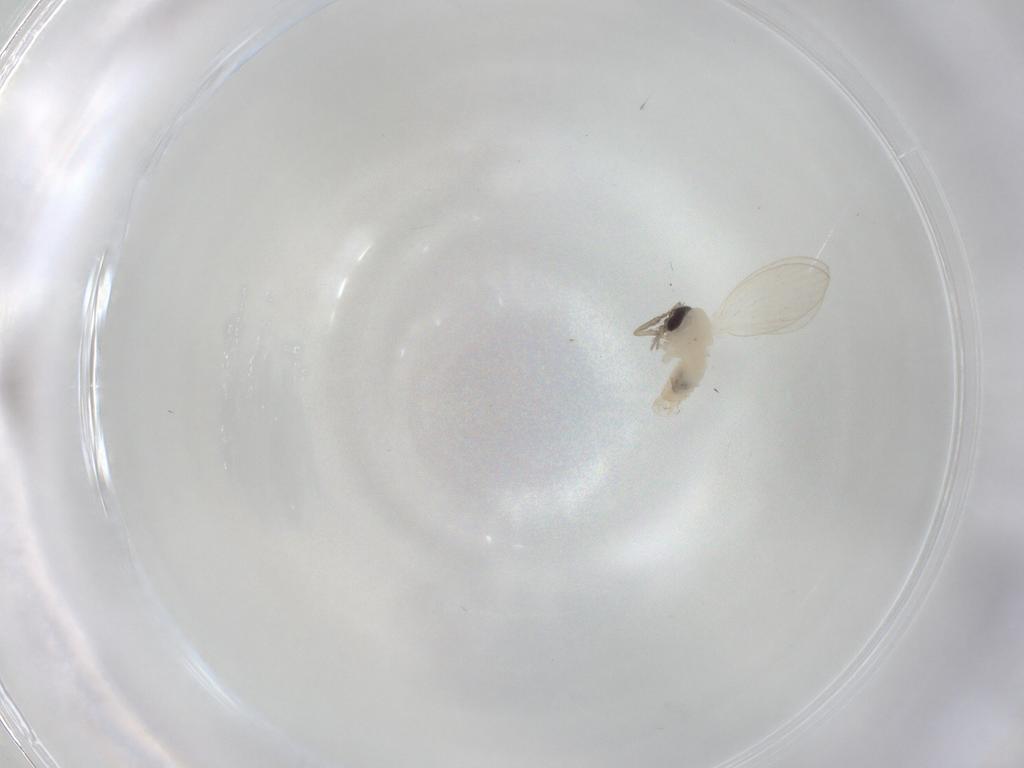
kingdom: Animalia
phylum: Arthropoda
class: Insecta
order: Diptera
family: Psychodidae
